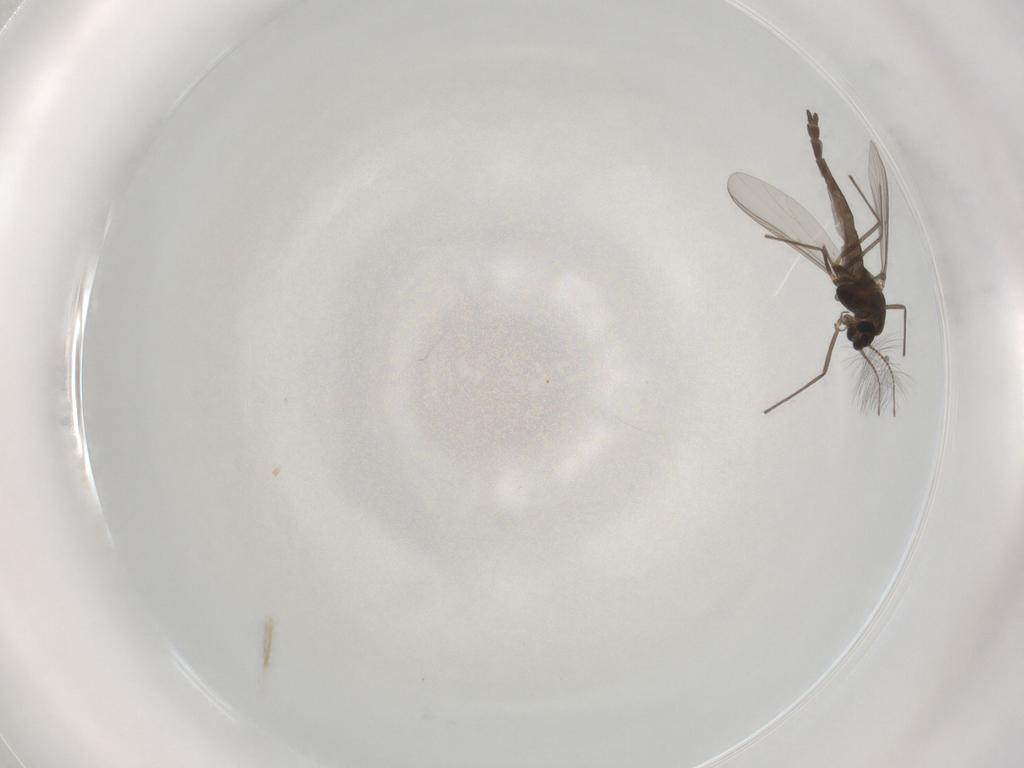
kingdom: Animalia
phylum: Arthropoda
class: Insecta
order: Diptera
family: Chironomidae
